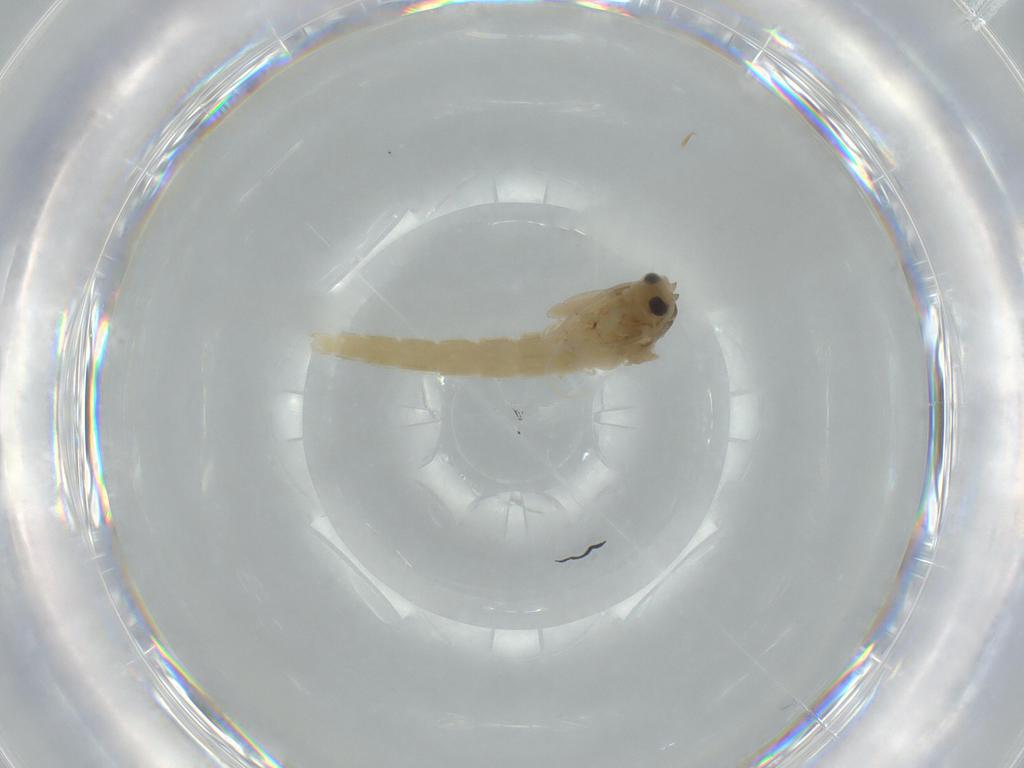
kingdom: Animalia
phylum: Arthropoda
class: Insecta
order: Diptera
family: Chironomidae
